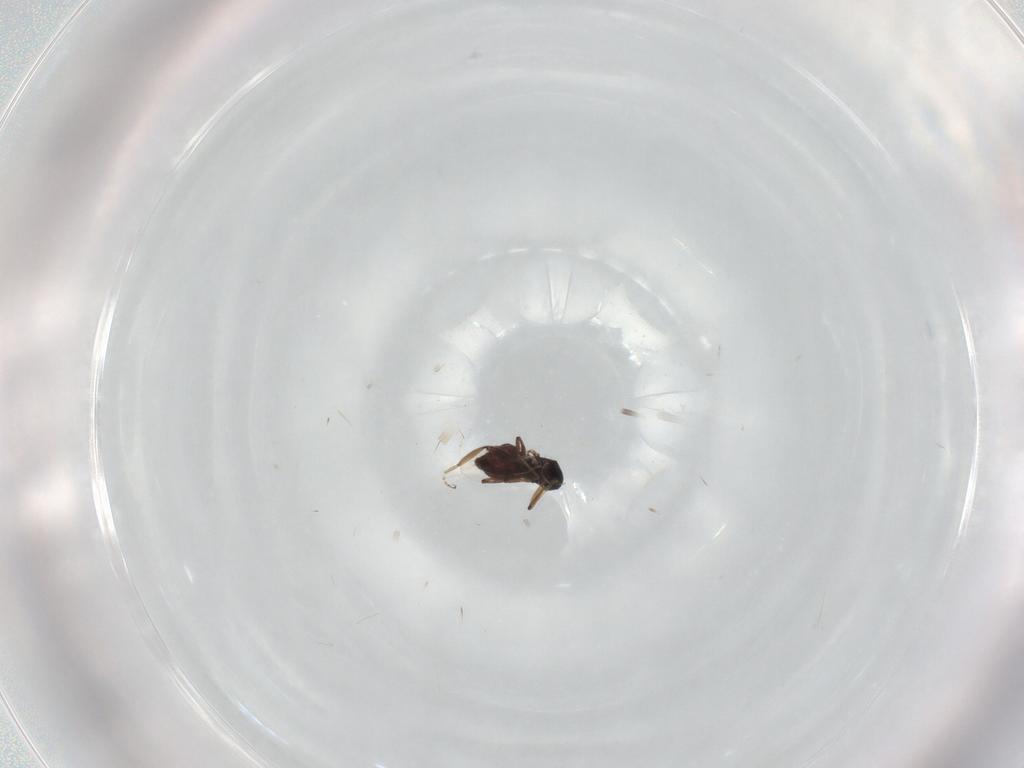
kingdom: Animalia
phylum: Arthropoda
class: Insecta
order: Diptera
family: Ceratopogonidae
